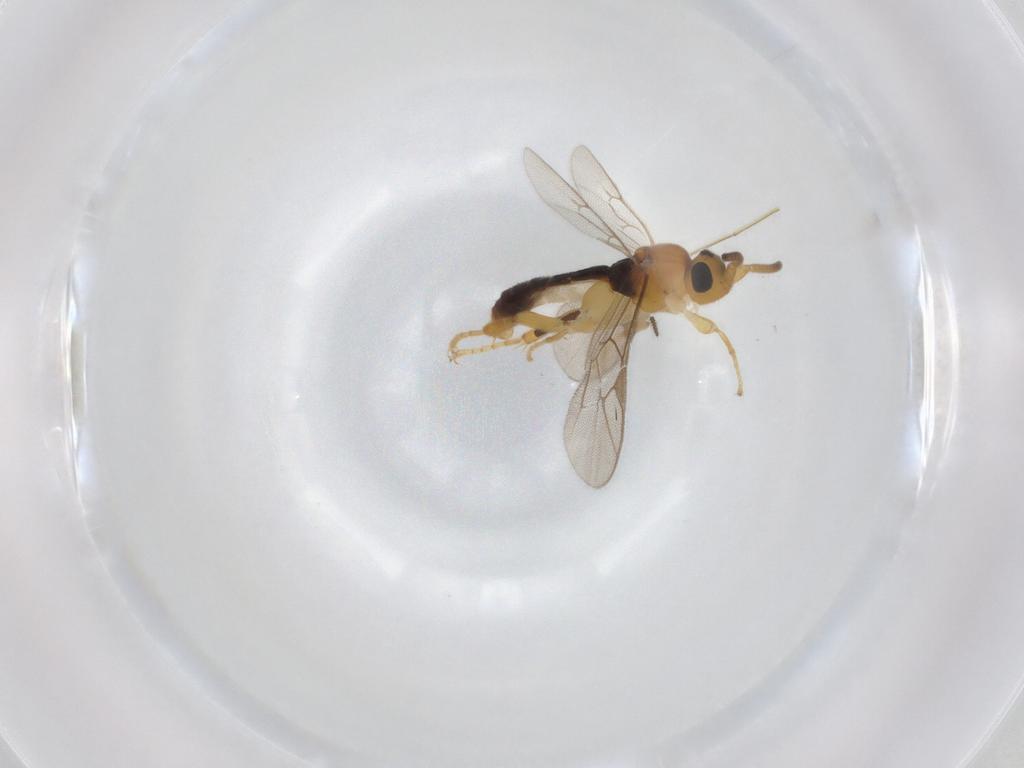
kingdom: Animalia
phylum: Arthropoda
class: Insecta
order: Hymenoptera
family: Ichneumonidae
